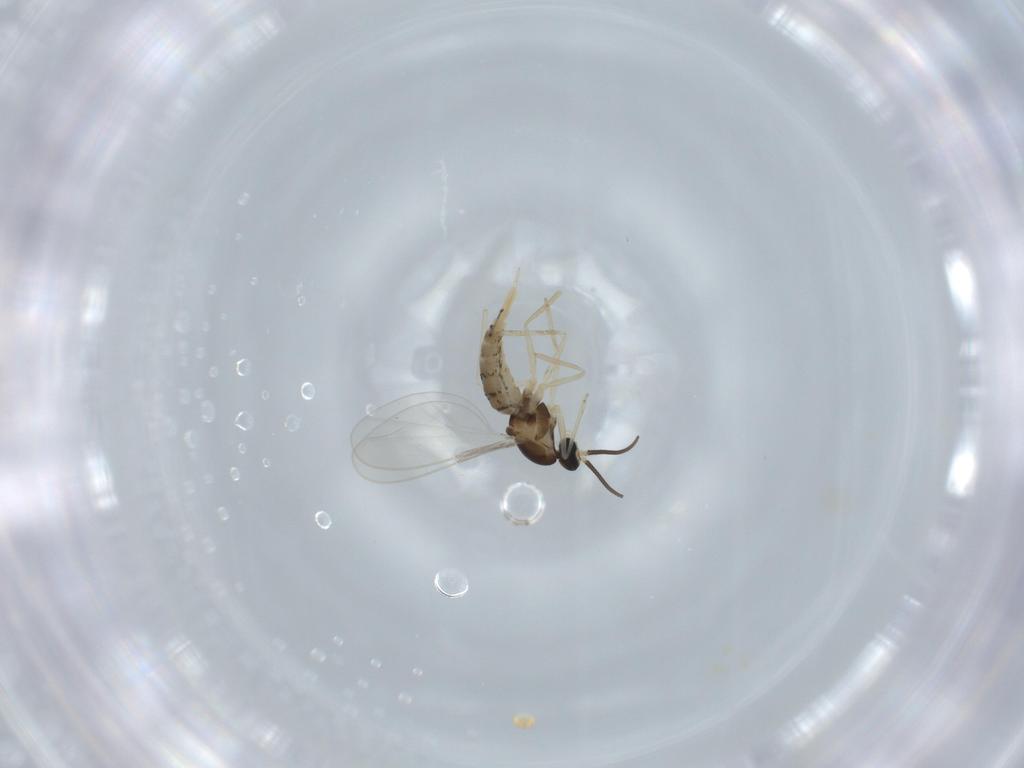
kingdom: Animalia
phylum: Arthropoda
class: Insecta
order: Diptera
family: Cecidomyiidae
